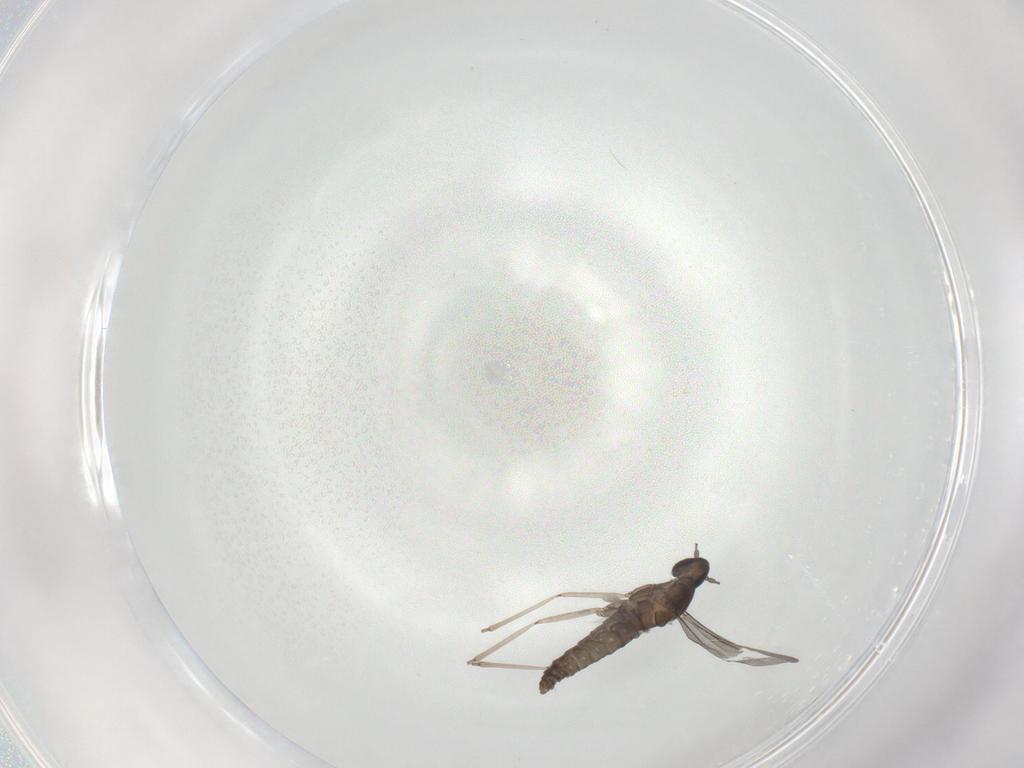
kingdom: Animalia
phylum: Arthropoda
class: Insecta
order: Diptera
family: Cecidomyiidae
